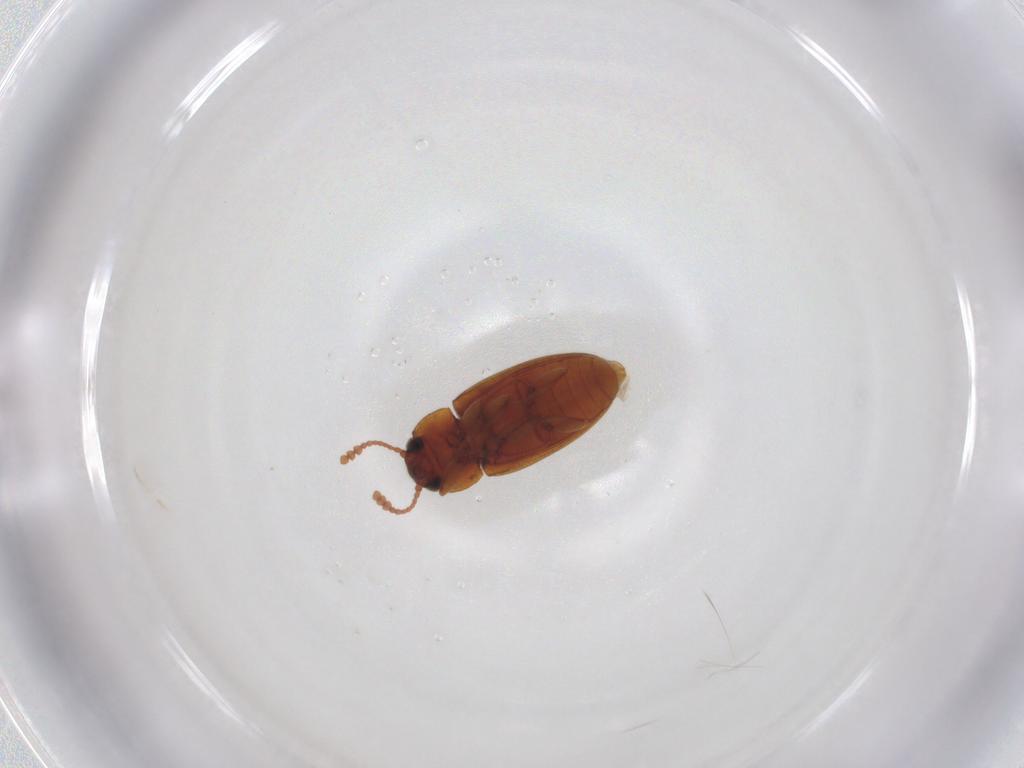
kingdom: Animalia
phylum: Arthropoda
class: Insecta
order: Coleoptera
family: Erotylidae
